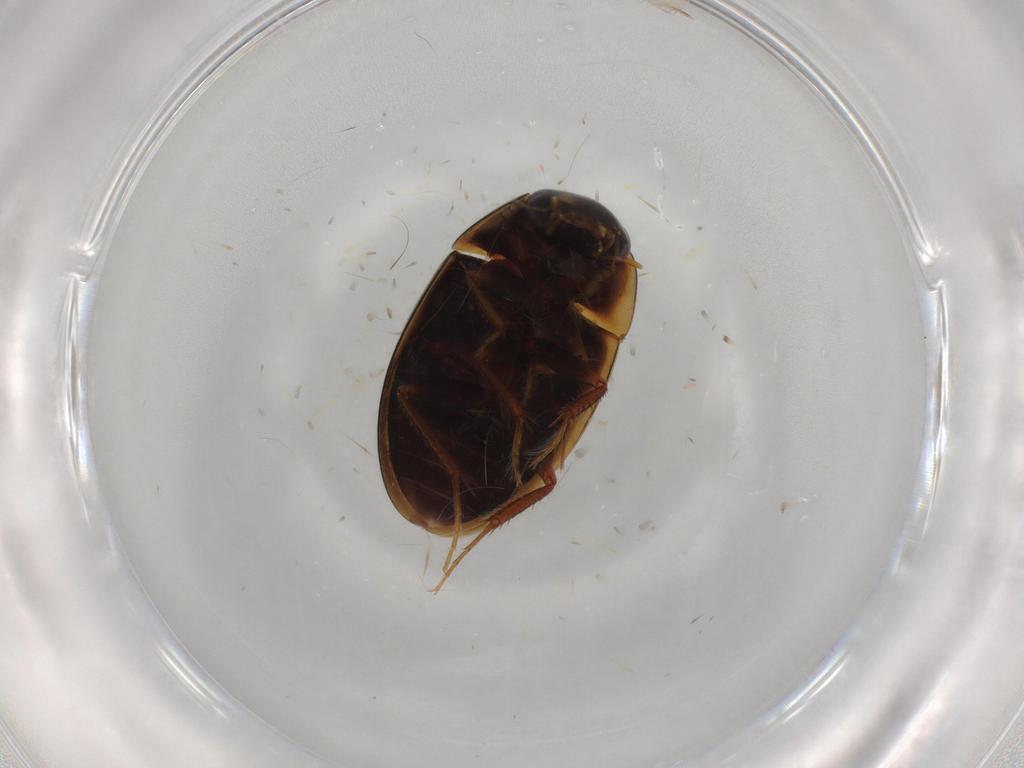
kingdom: Animalia
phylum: Arthropoda
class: Insecta
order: Coleoptera
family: Hydrophilidae
